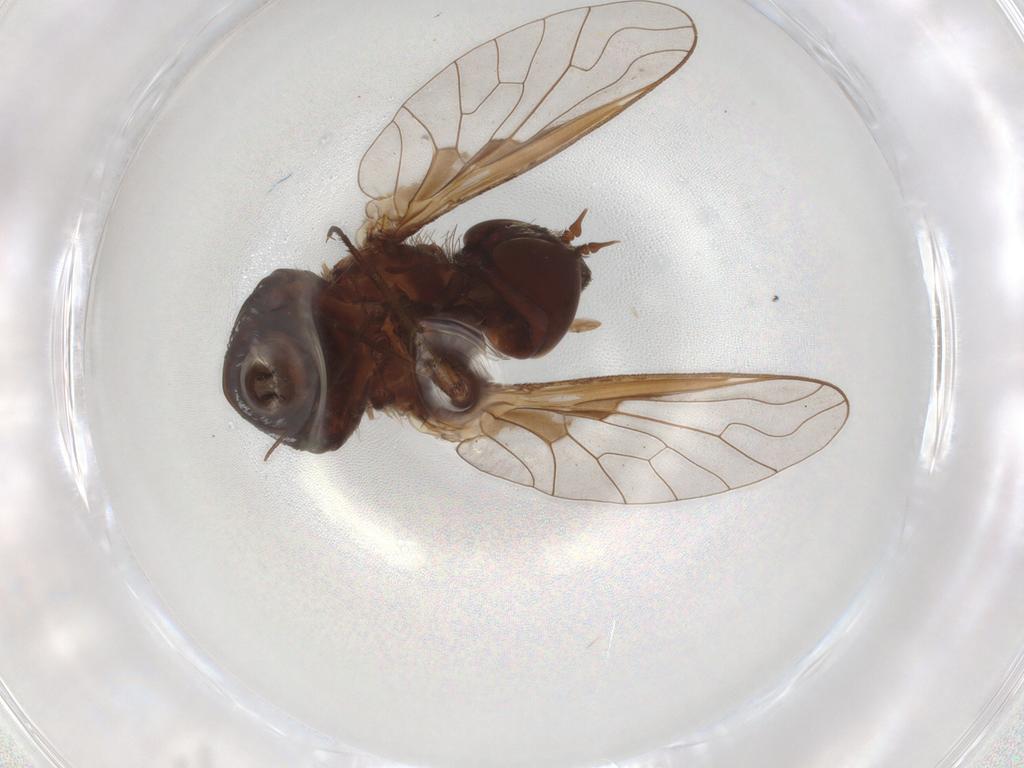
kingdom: Animalia
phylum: Arthropoda
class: Insecta
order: Diptera
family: Bombyliidae
